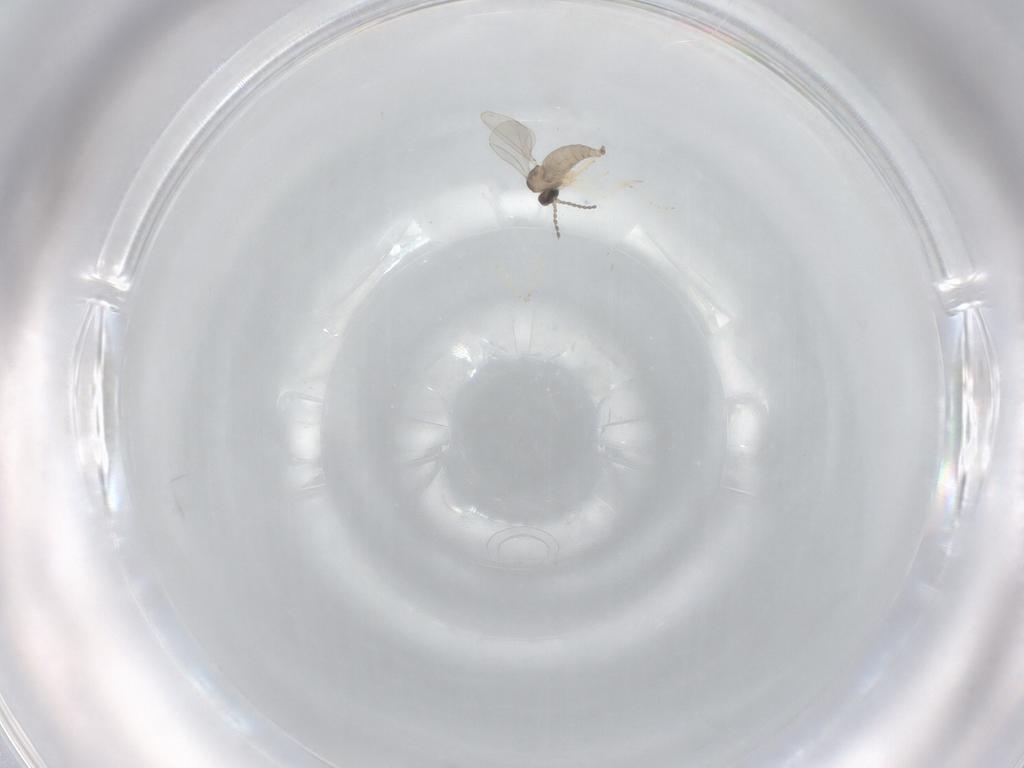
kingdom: Animalia
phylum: Arthropoda
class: Insecta
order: Diptera
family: Cecidomyiidae
